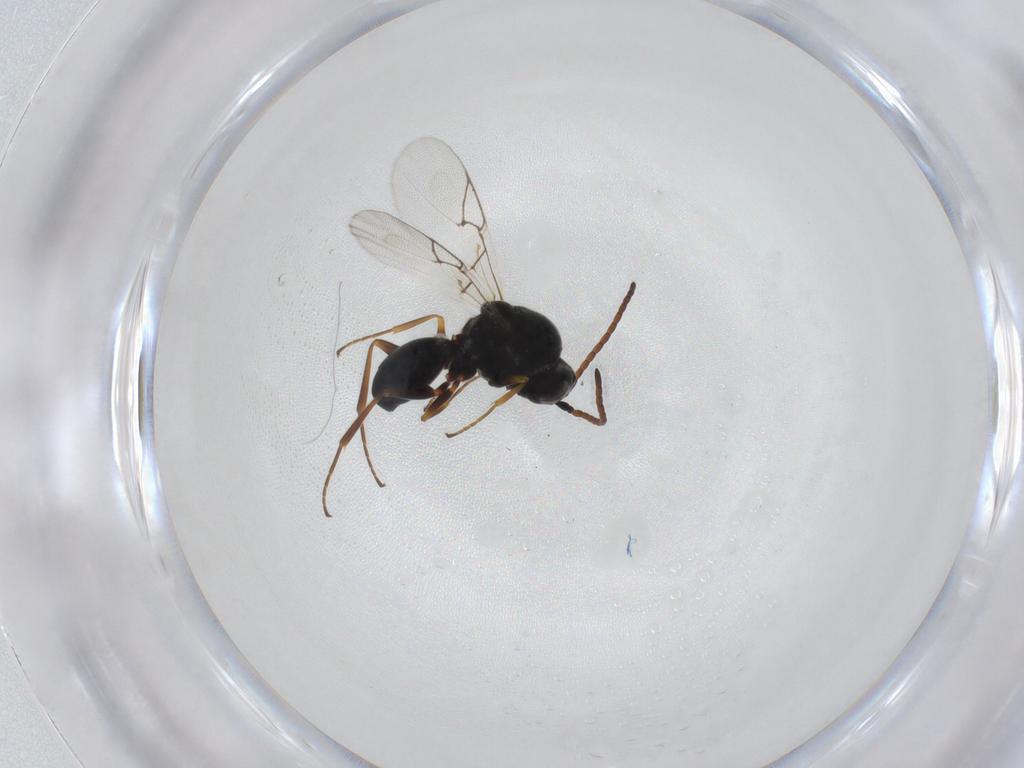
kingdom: Animalia
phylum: Arthropoda
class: Insecta
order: Hymenoptera
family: Figitidae
